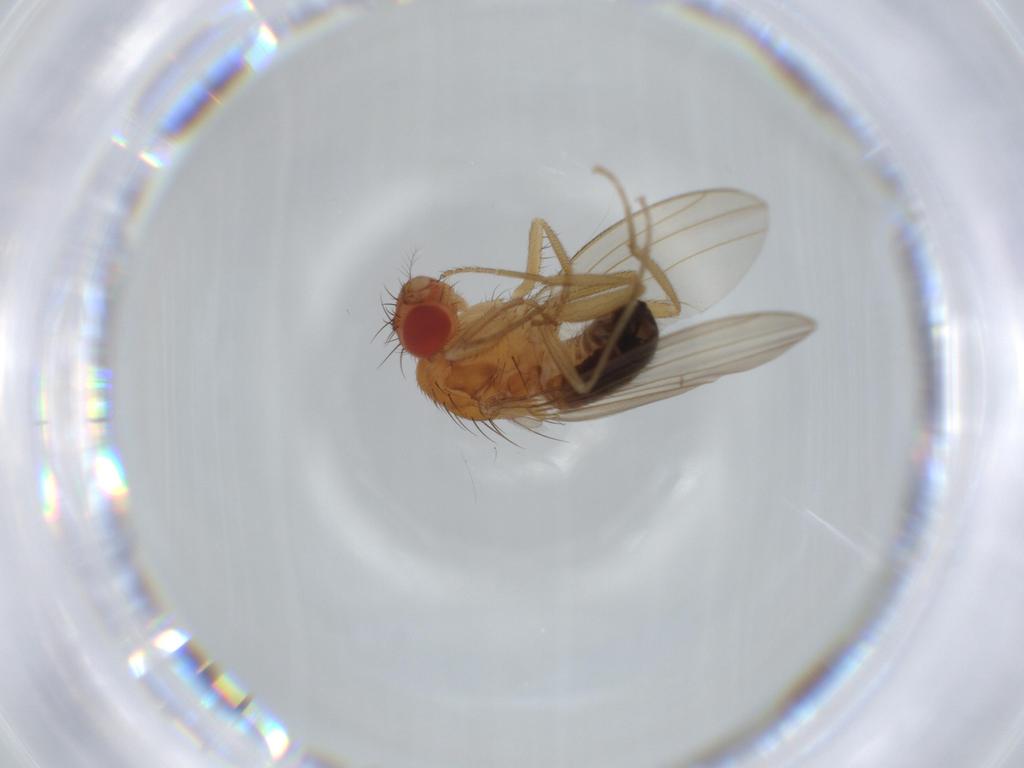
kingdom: Animalia
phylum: Arthropoda
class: Insecta
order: Diptera
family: Drosophilidae
